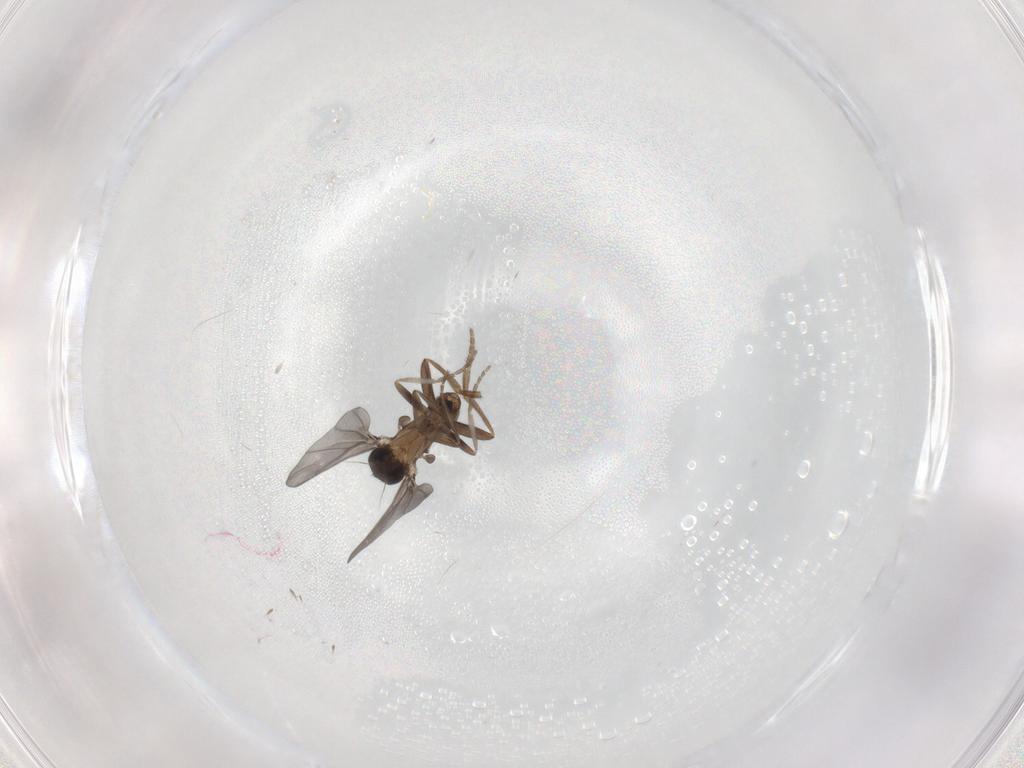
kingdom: Animalia
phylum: Arthropoda
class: Insecta
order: Diptera
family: Phoridae
